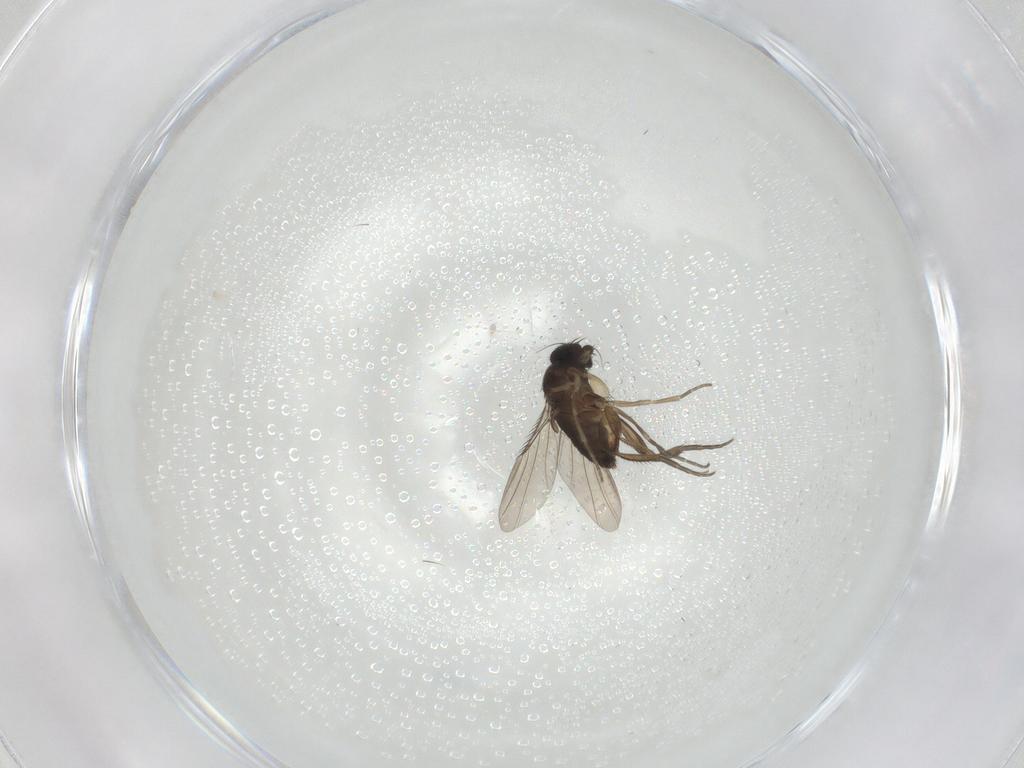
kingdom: Animalia
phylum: Arthropoda
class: Insecta
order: Diptera
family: Phoridae
